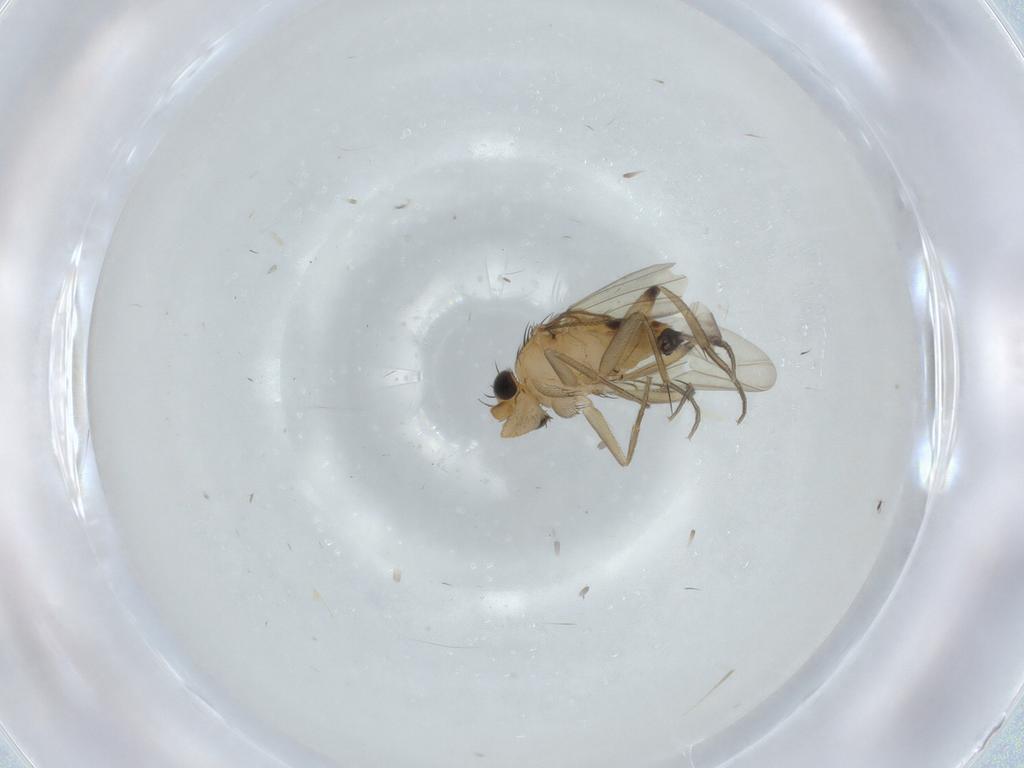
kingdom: Animalia
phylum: Arthropoda
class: Insecta
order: Diptera
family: Phoridae
